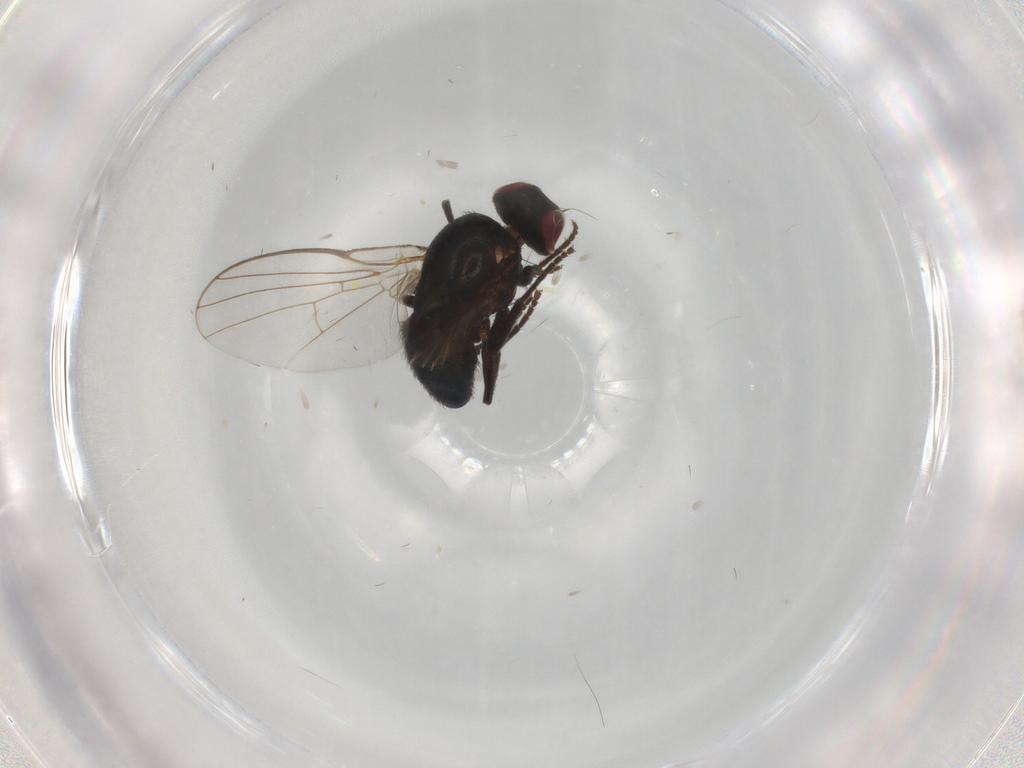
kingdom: Animalia
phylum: Arthropoda
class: Insecta
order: Diptera
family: Agromyzidae
